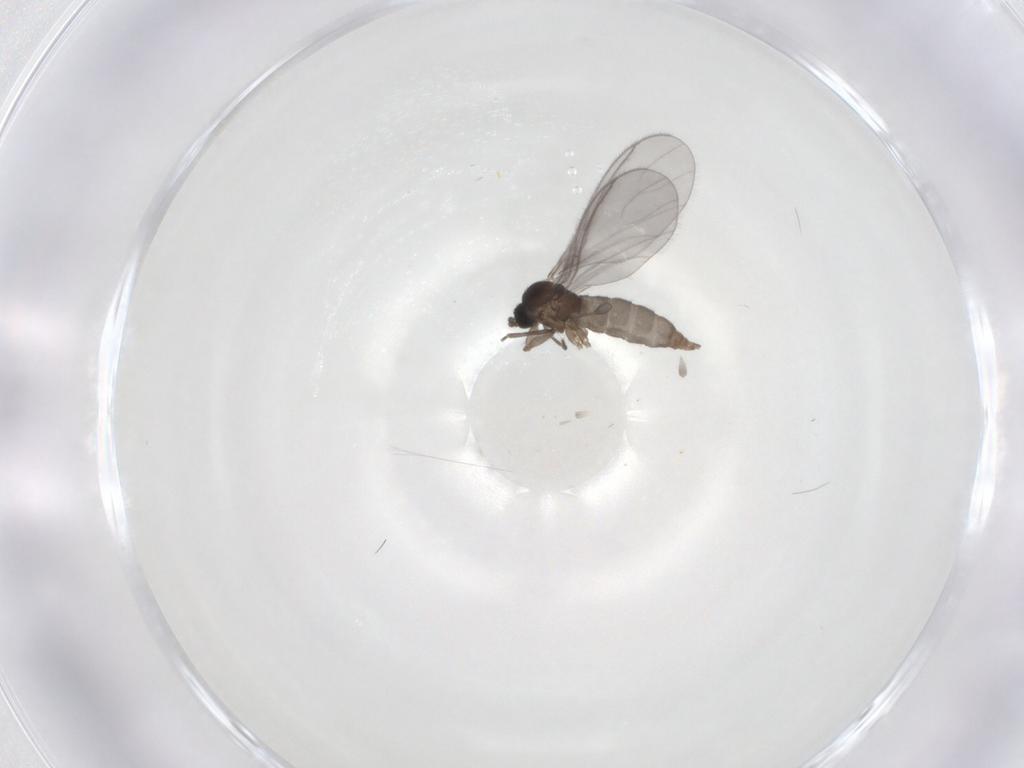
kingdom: Animalia
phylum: Arthropoda
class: Insecta
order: Diptera
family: Sciaridae
